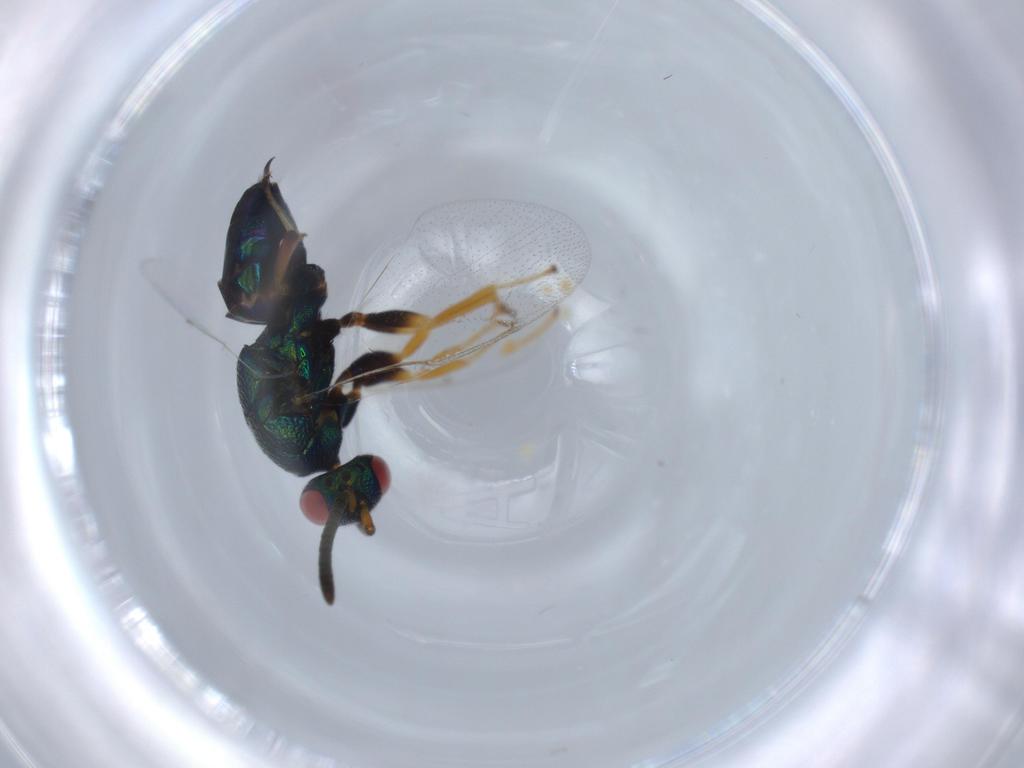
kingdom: Animalia
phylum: Arthropoda
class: Insecta
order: Hymenoptera
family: Torymidae
